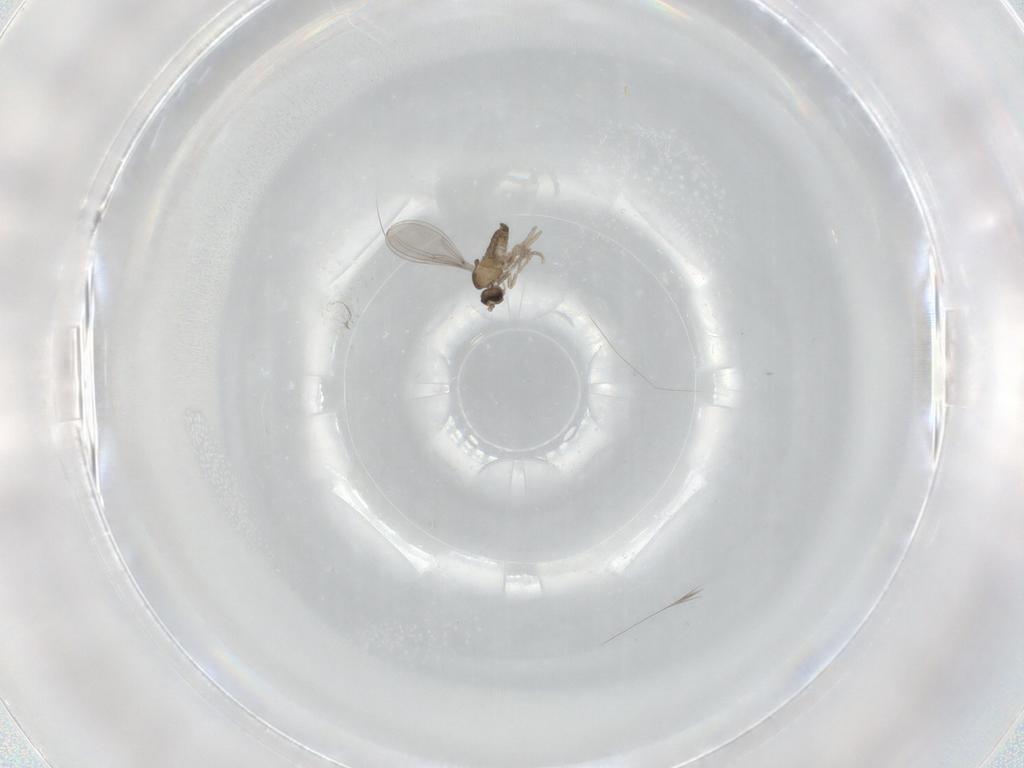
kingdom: Animalia
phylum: Arthropoda
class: Insecta
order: Diptera
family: Cecidomyiidae
